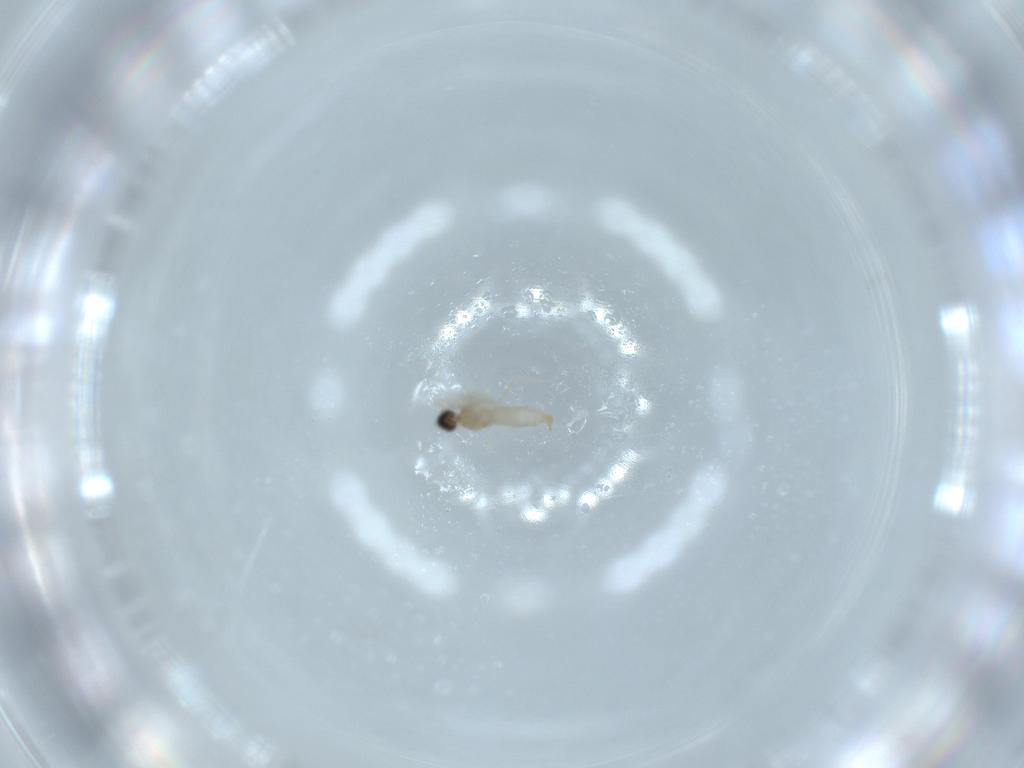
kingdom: Animalia
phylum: Arthropoda
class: Insecta
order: Diptera
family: Cecidomyiidae
